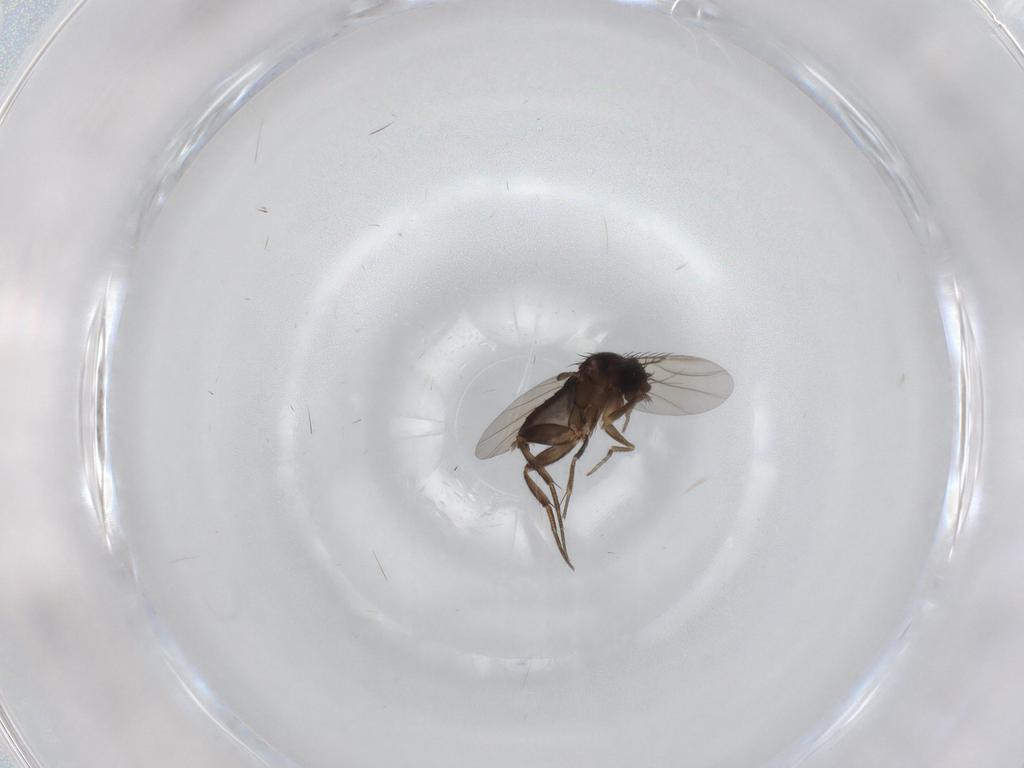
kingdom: Animalia
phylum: Arthropoda
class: Insecta
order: Diptera
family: Phoridae
